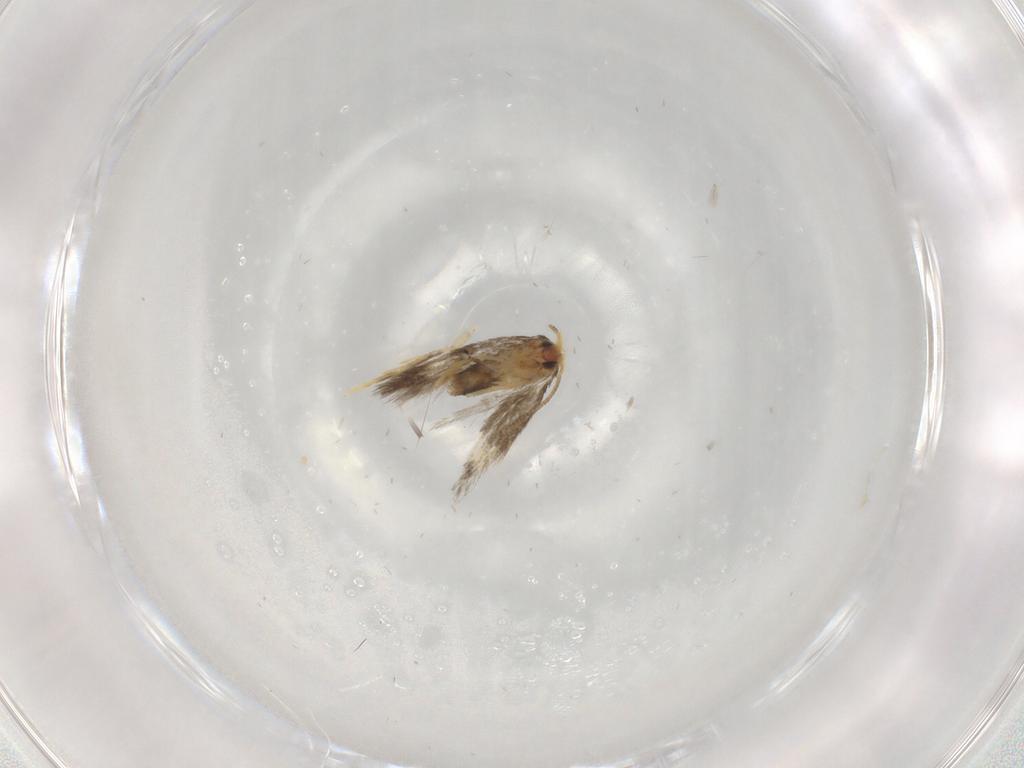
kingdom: Animalia
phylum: Arthropoda
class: Insecta
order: Lepidoptera
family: Nepticulidae
